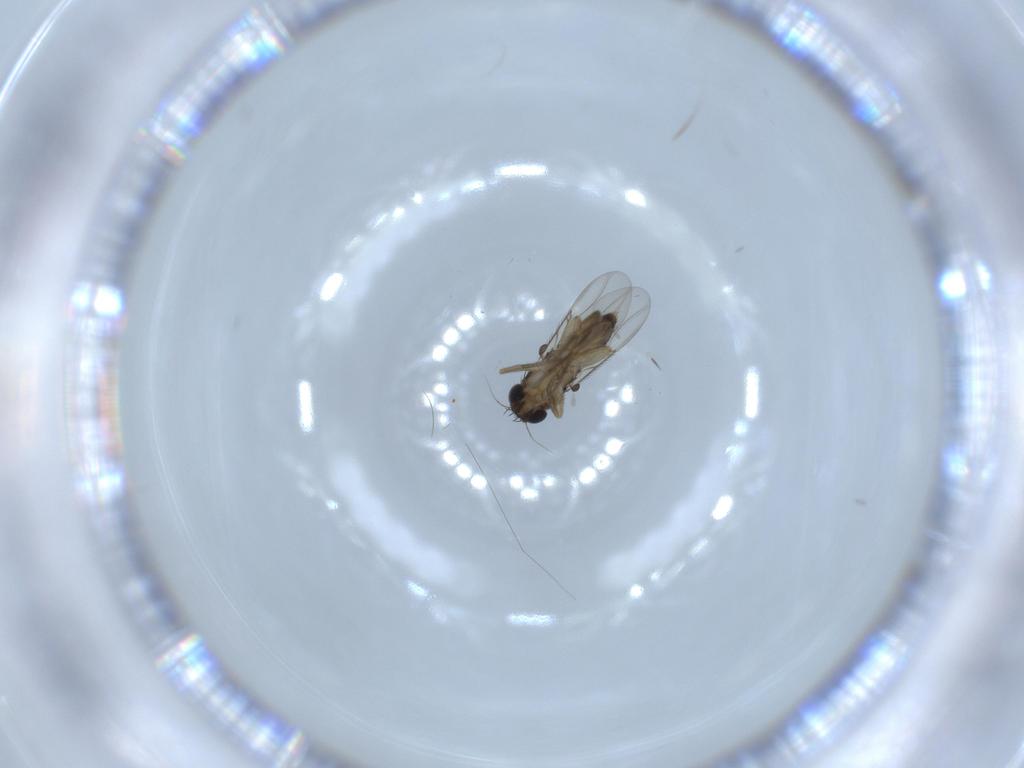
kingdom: Animalia
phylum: Arthropoda
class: Insecta
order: Diptera
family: Phoridae
